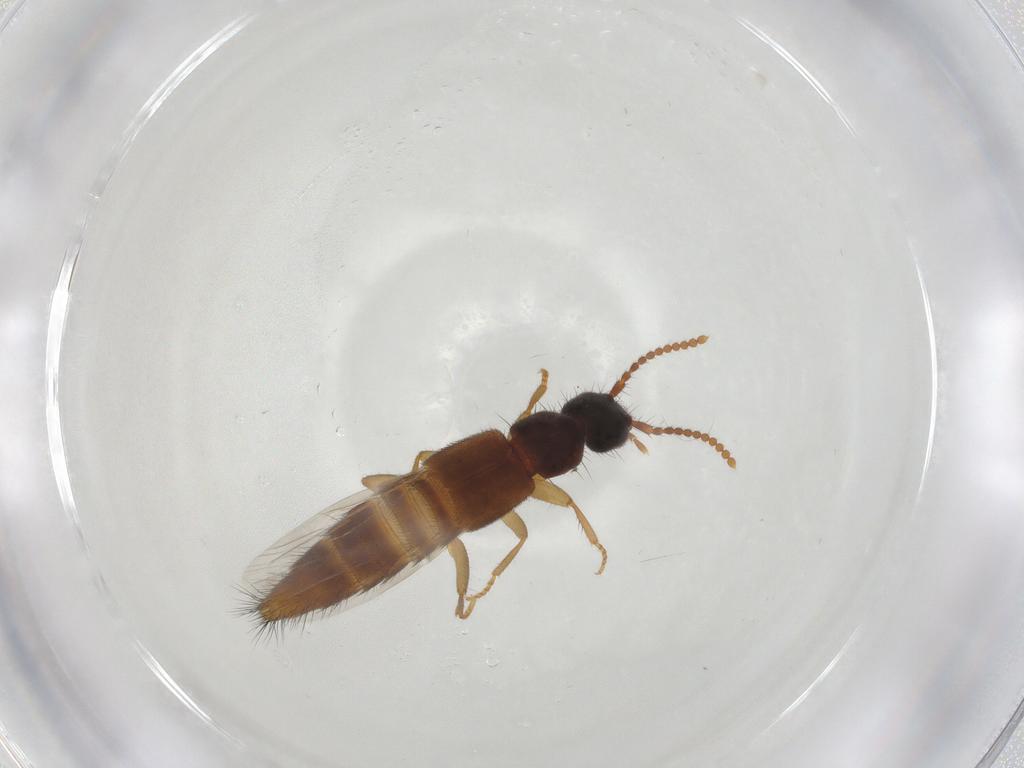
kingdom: Animalia
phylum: Arthropoda
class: Insecta
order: Coleoptera
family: Staphylinidae
